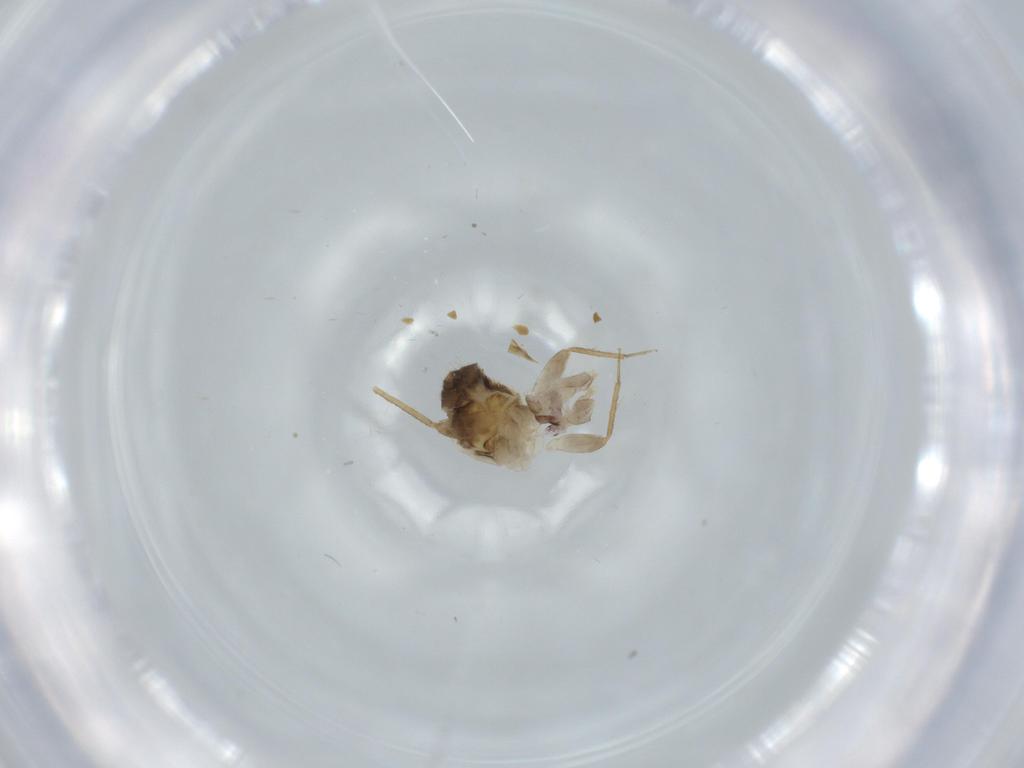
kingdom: Animalia
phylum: Arthropoda
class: Insecta
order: Psocodea
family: Lepidopsocidae
